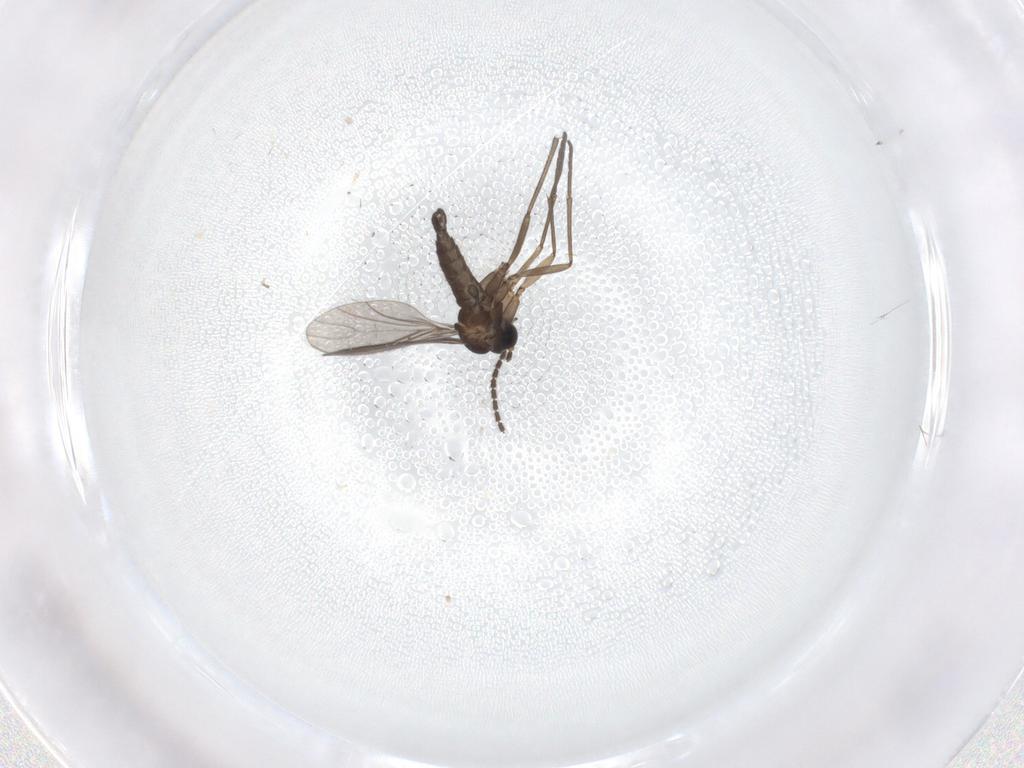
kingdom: Animalia
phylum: Arthropoda
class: Insecta
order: Diptera
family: Sciaridae
